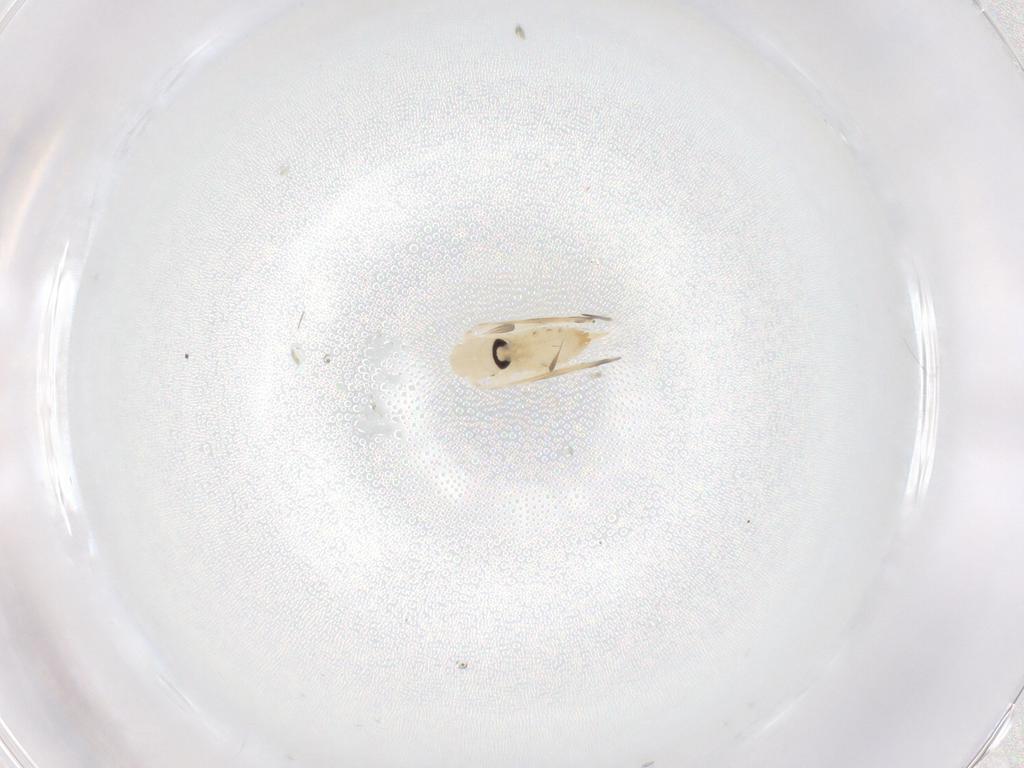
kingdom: Animalia
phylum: Arthropoda
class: Insecta
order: Diptera
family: Psychodidae
